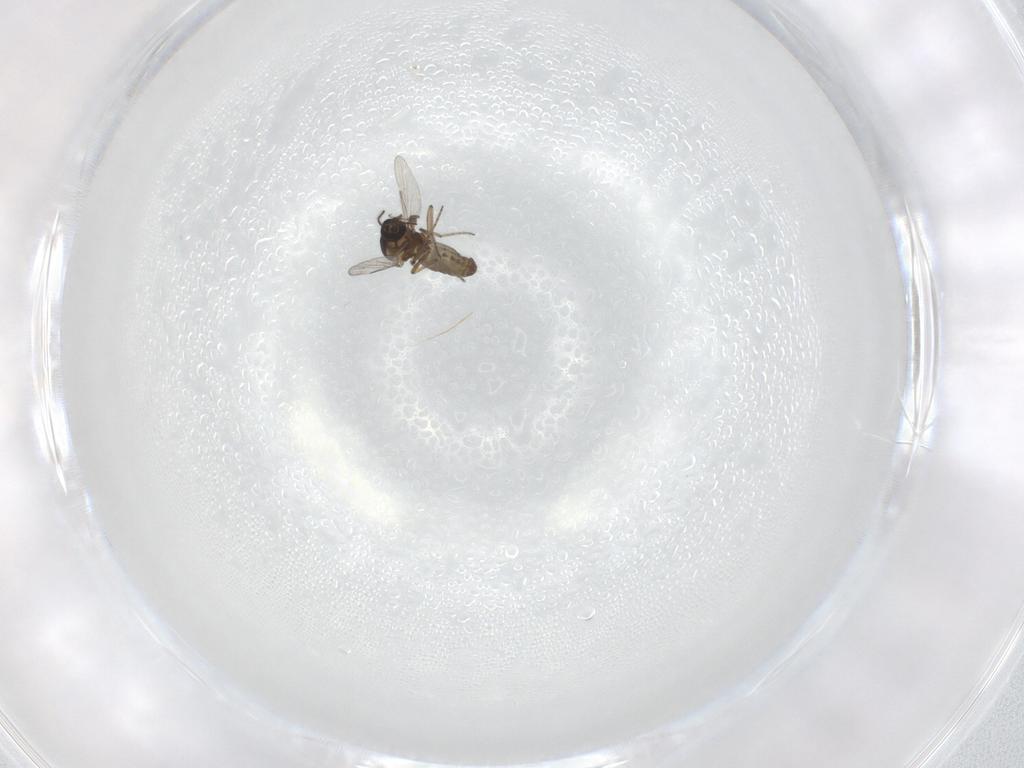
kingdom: Animalia
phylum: Arthropoda
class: Insecta
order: Diptera
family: Ceratopogonidae
